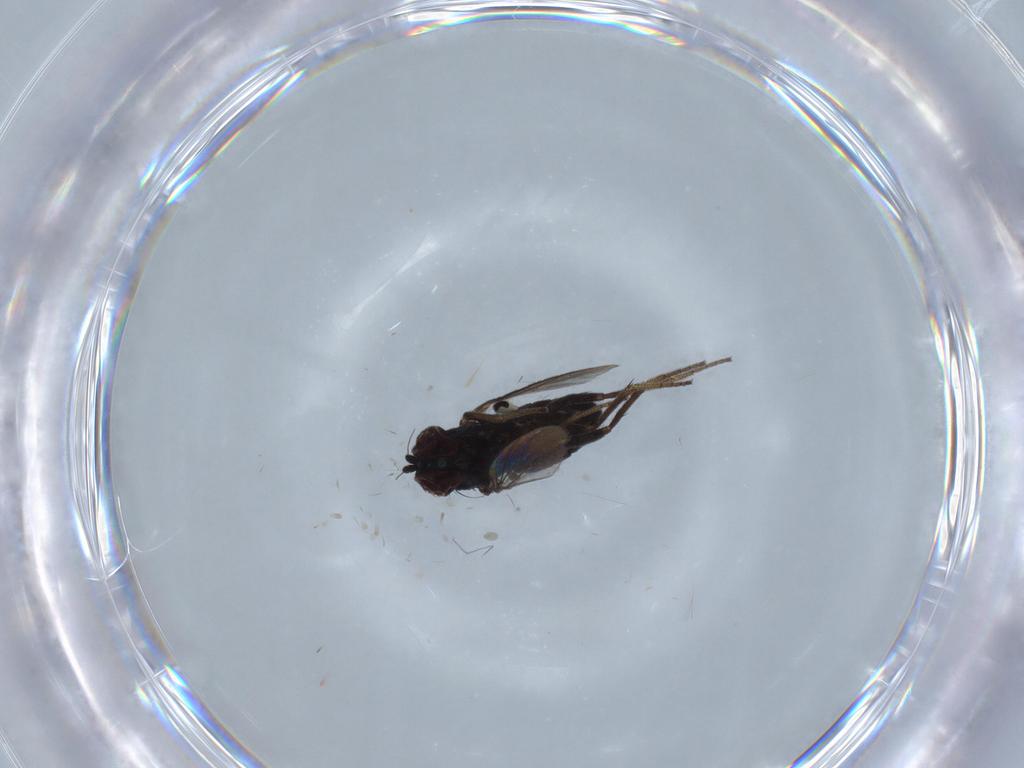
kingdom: Animalia
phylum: Arthropoda
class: Insecta
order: Diptera
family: Dolichopodidae
